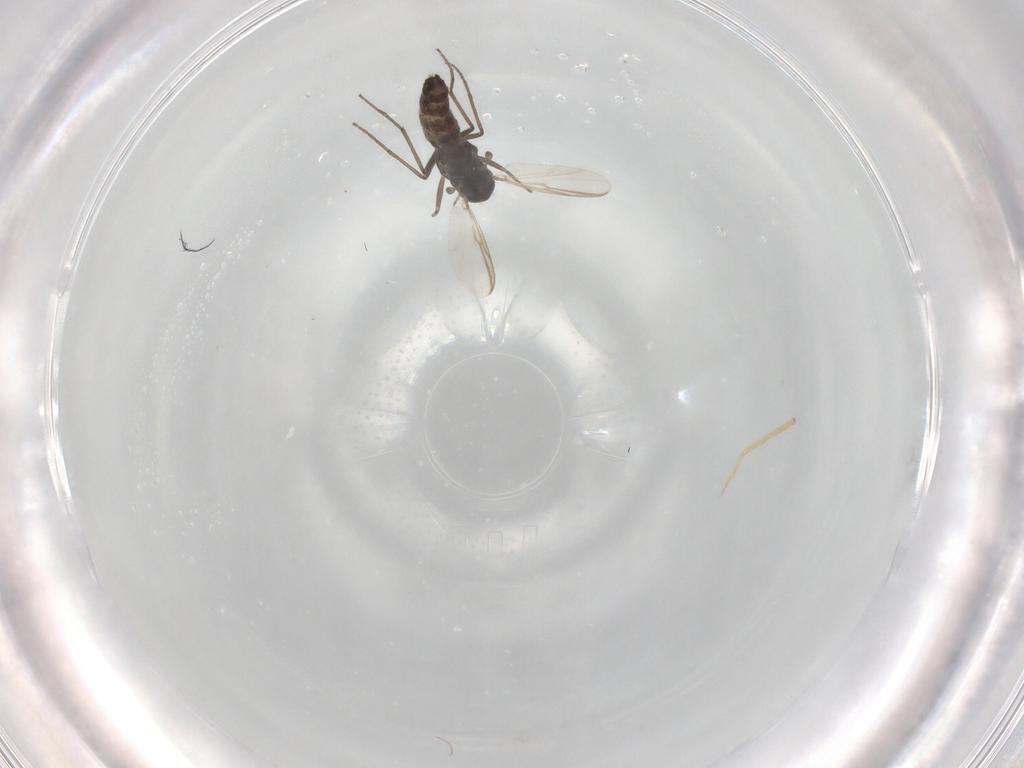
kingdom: Animalia
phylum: Arthropoda
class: Insecta
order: Diptera
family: Chironomidae
